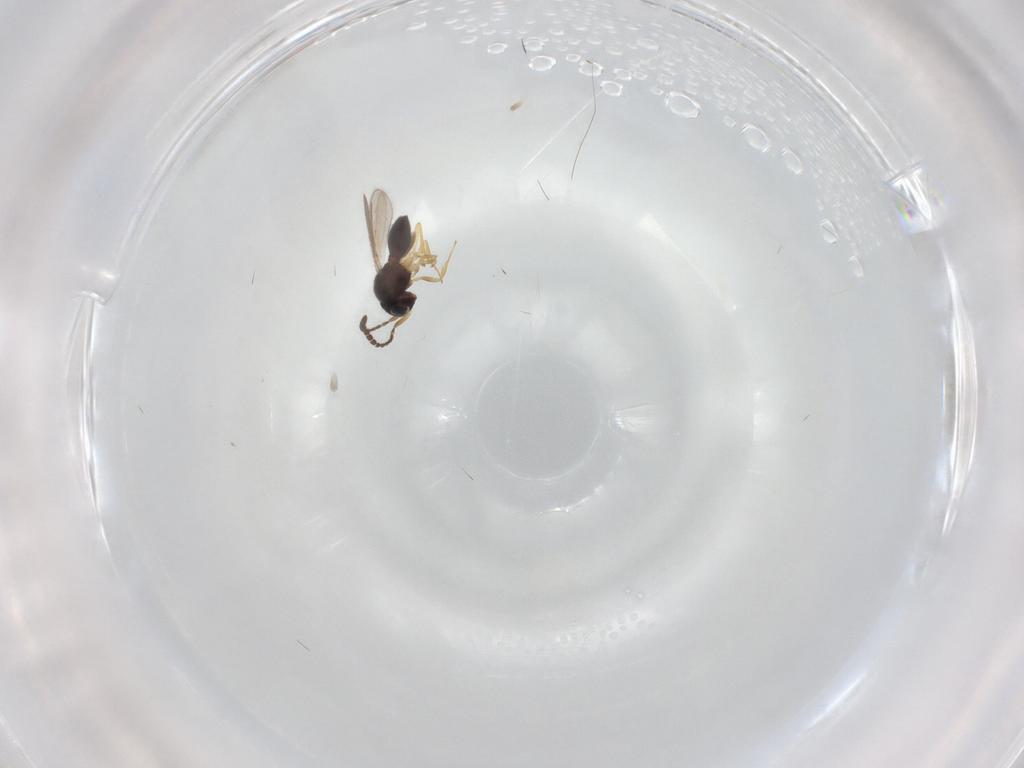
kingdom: Animalia
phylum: Arthropoda
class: Insecta
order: Hymenoptera
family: Scelionidae
